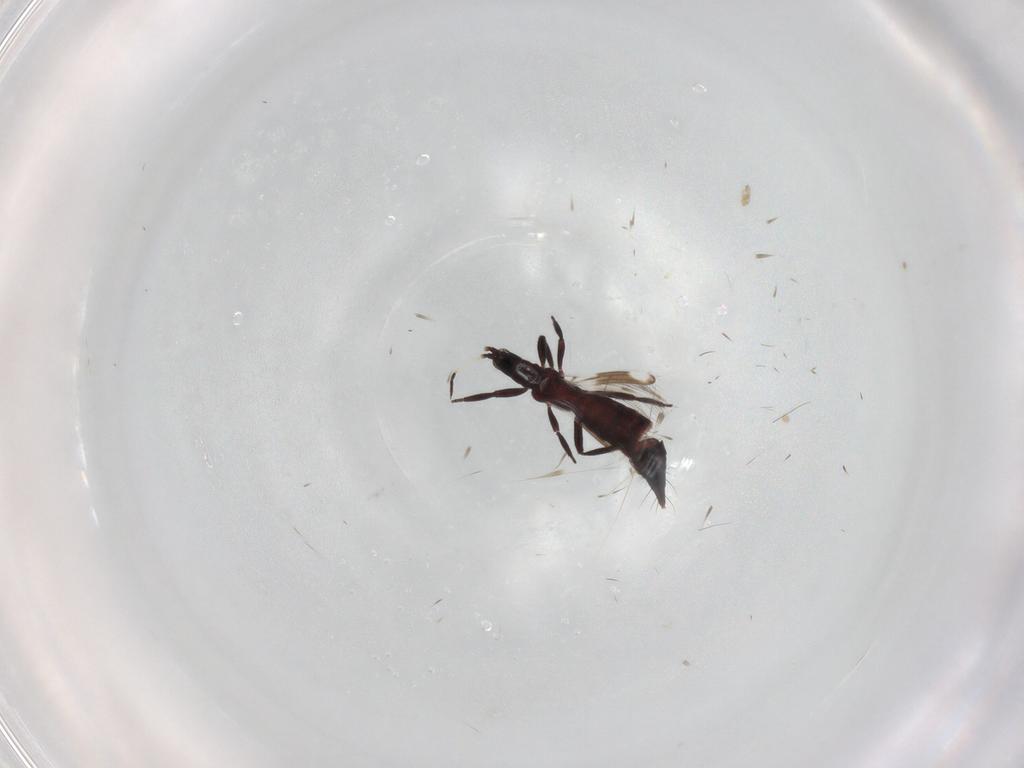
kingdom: Animalia
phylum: Arthropoda
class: Insecta
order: Thysanoptera
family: Aeolothripidae
